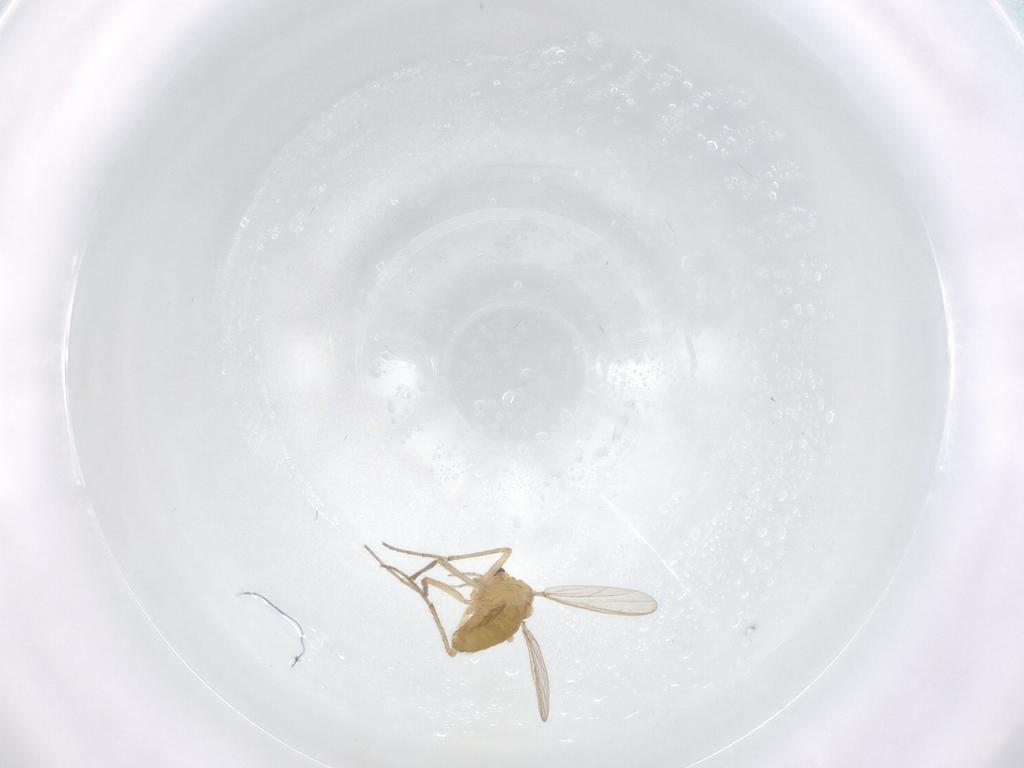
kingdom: Animalia
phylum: Arthropoda
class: Insecta
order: Diptera
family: Chironomidae
